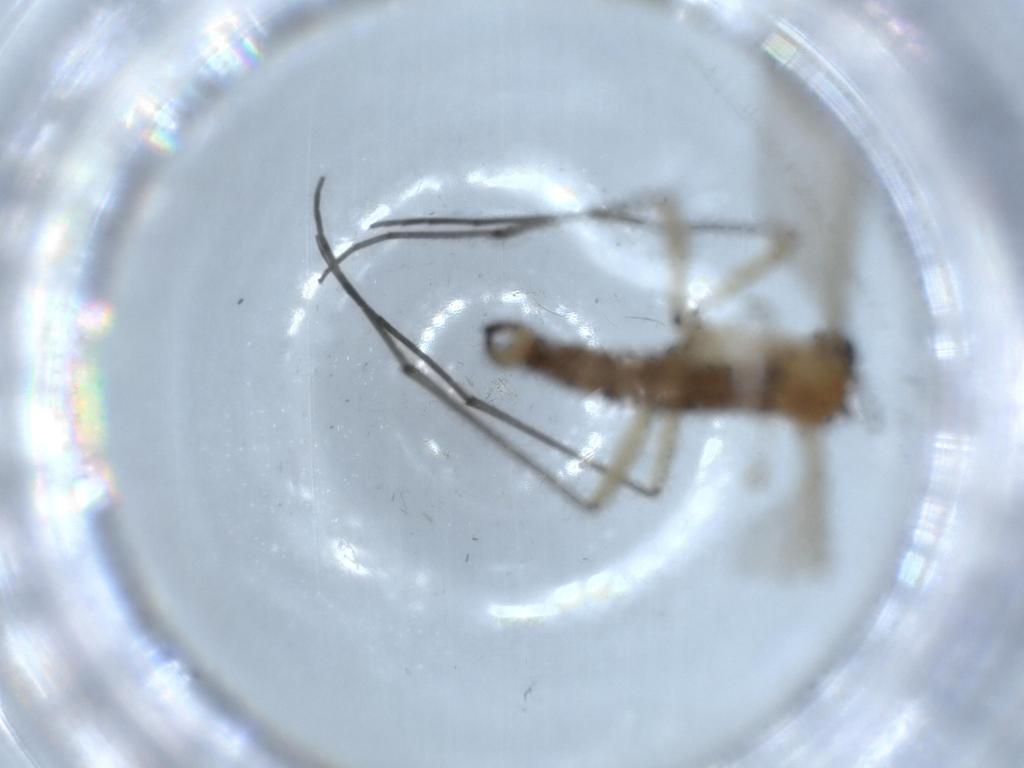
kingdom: Animalia
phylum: Arthropoda
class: Insecta
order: Diptera
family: Sciaridae
